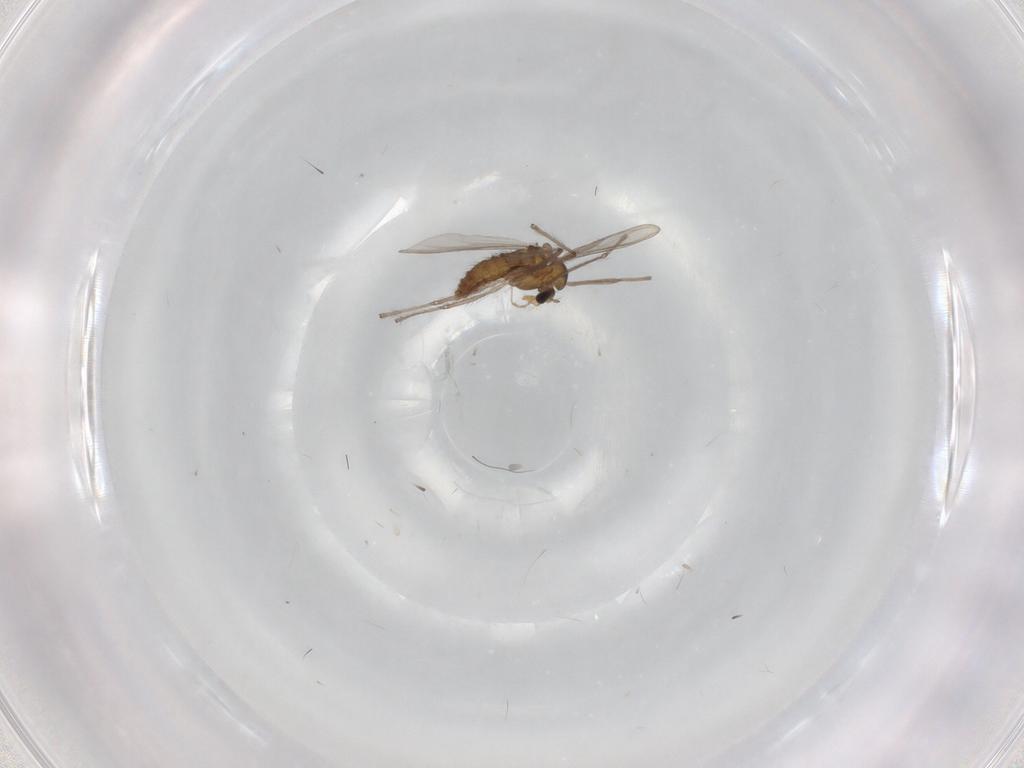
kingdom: Animalia
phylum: Arthropoda
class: Insecta
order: Diptera
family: Chironomidae
